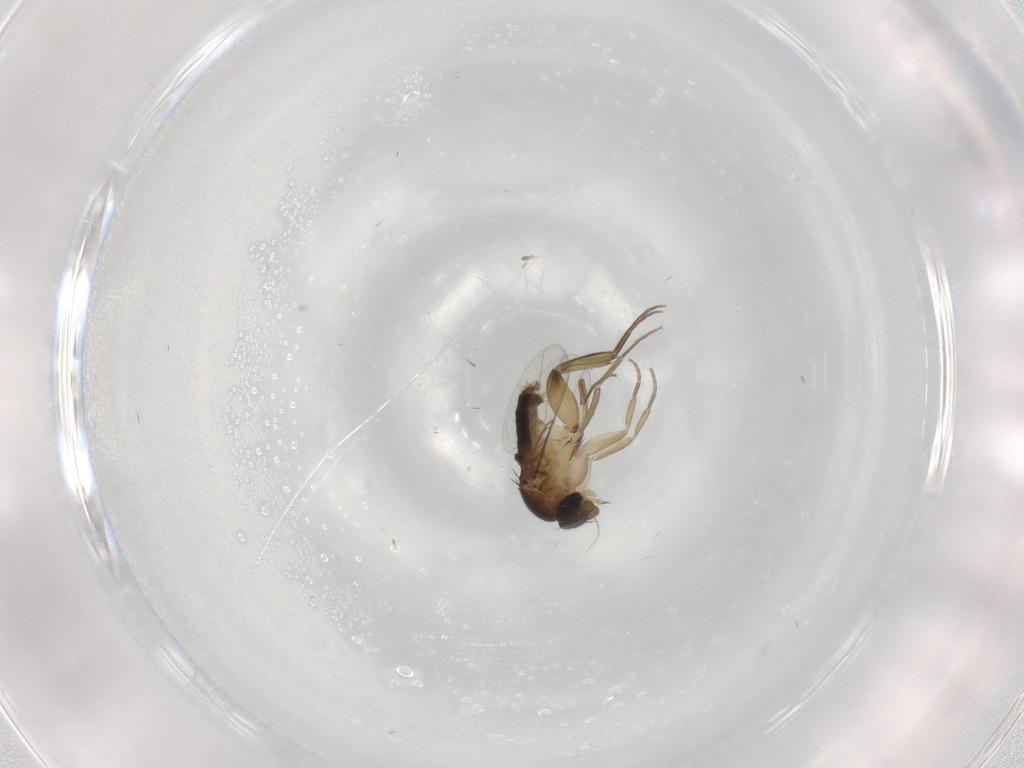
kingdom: Animalia
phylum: Arthropoda
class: Insecta
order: Diptera
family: Phoridae
